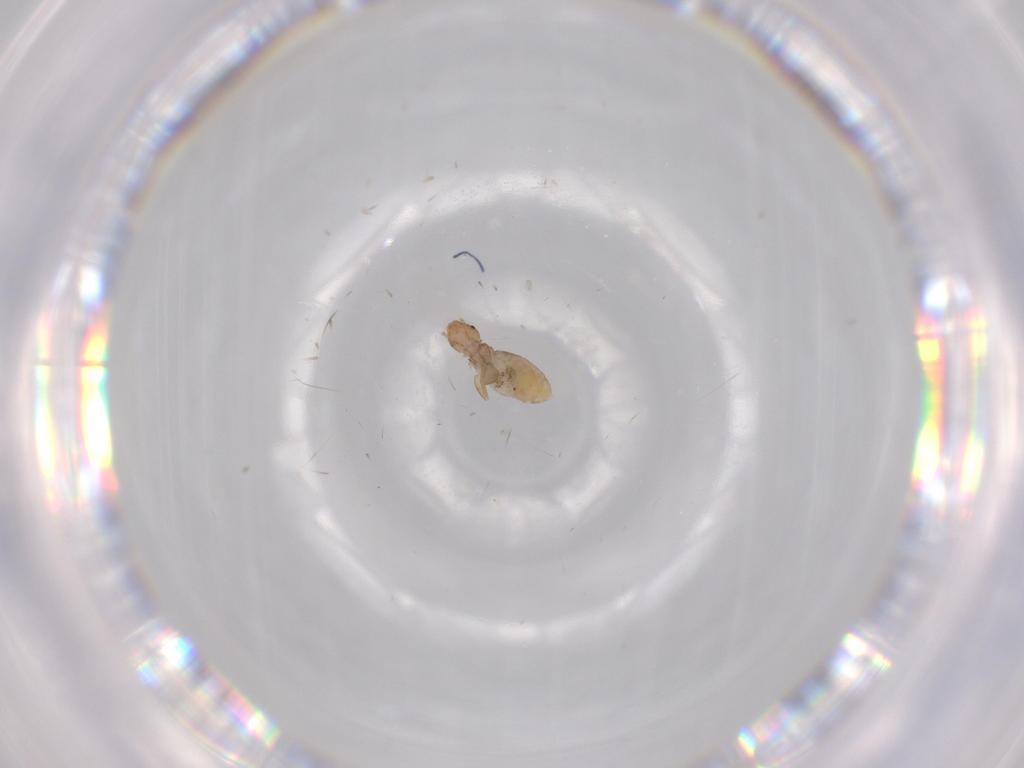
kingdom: Animalia
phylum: Arthropoda
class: Insecta
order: Psocodea
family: Liposcelididae
